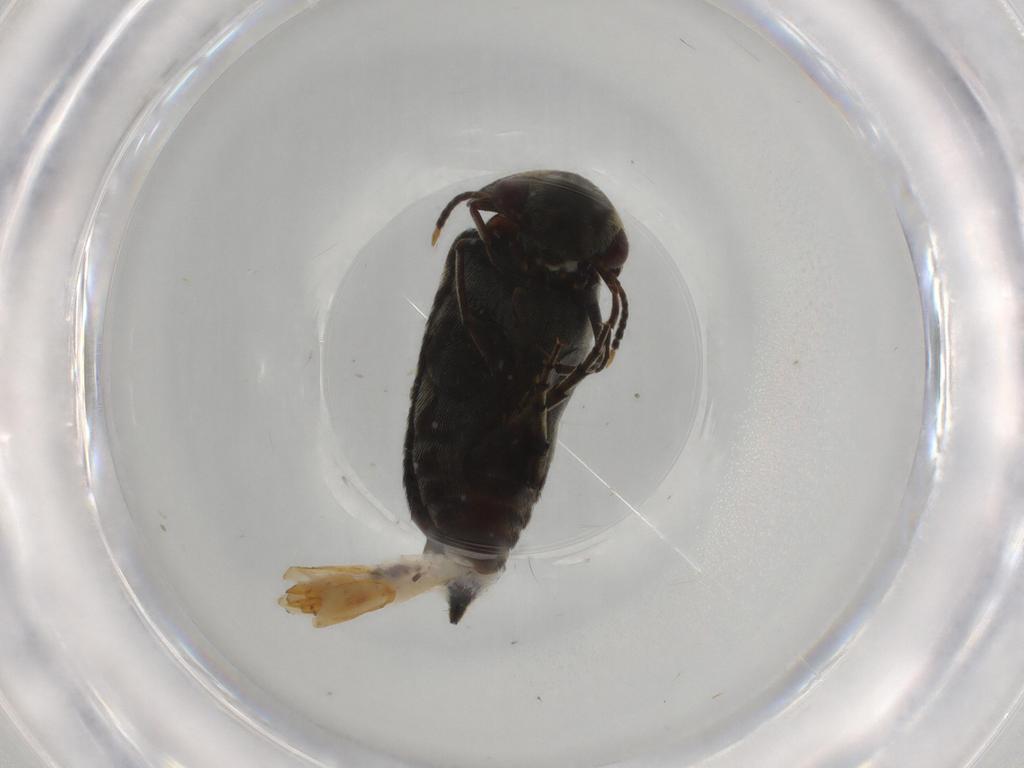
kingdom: Animalia
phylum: Arthropoda
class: Insecta
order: Coleoptera
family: Mordellidae
